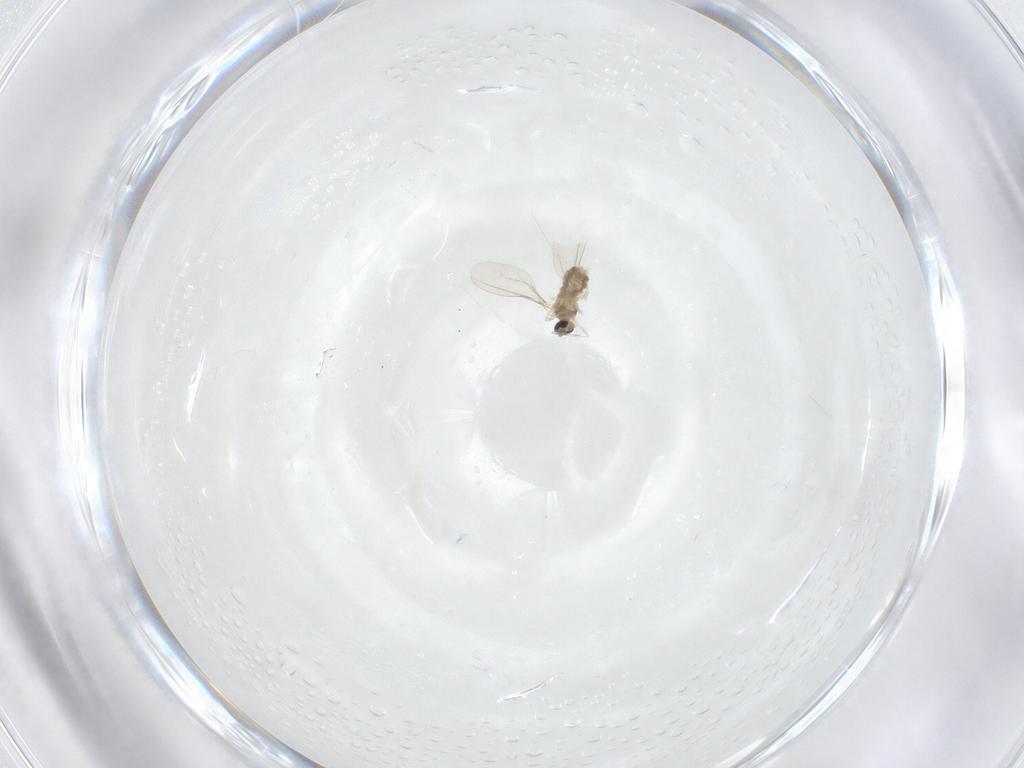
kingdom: Animalia
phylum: Arthropoda
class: Insecta
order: Diptera
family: Cecidomyiidae
